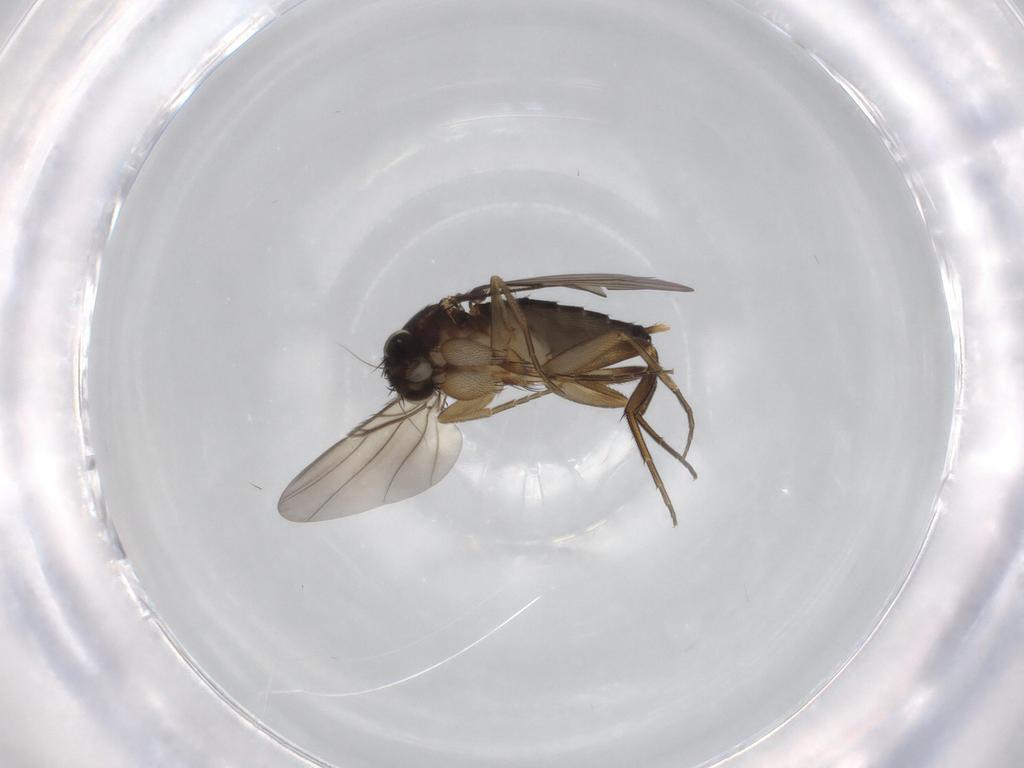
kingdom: Animalia
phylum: Arthropoda
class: Insecta
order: Diptera
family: Phoridae
